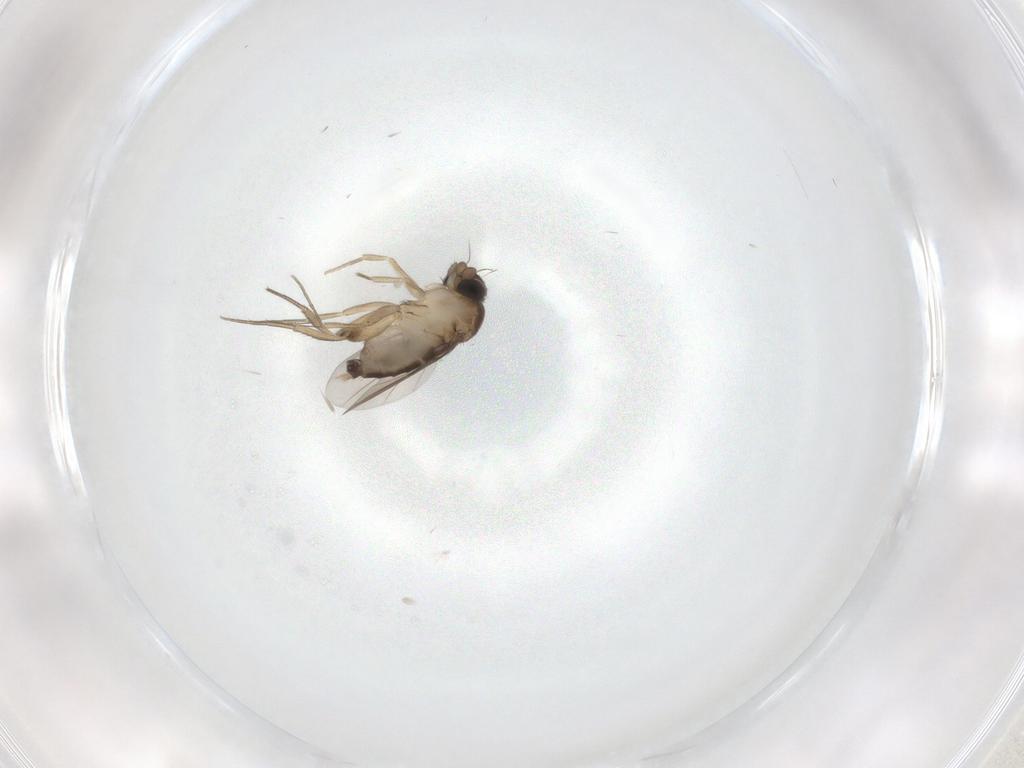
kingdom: Animalia
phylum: Arthropoda
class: Insecta
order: Diptera
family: Phoridae
